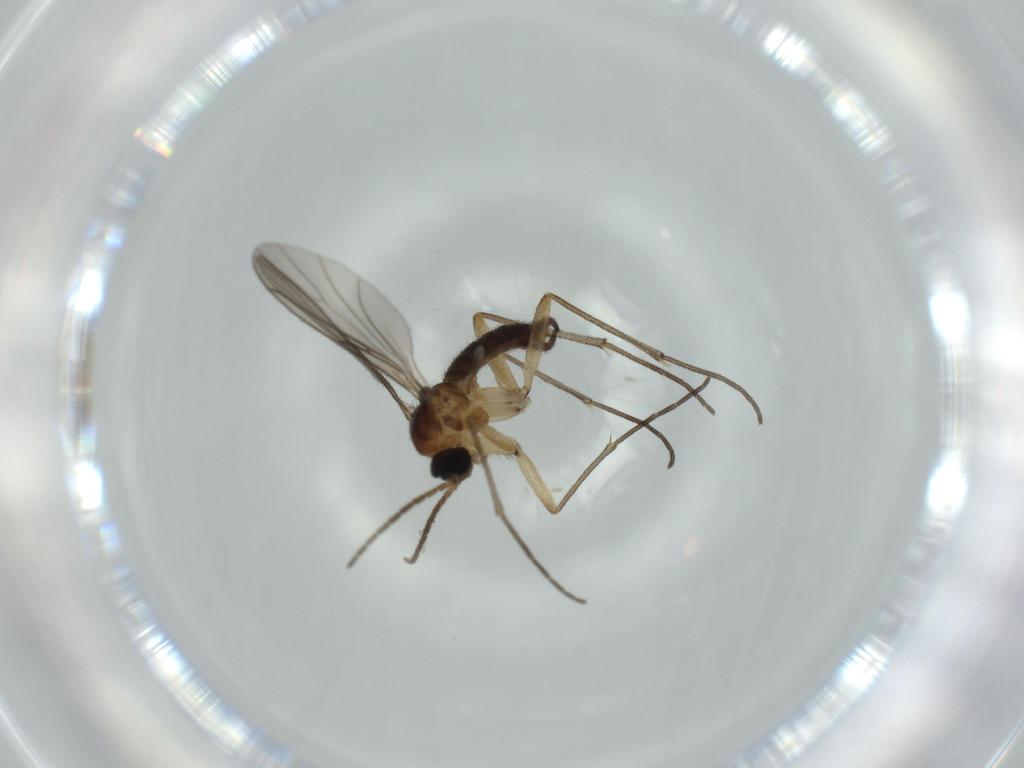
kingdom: Animalia
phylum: Arthropoda
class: Insecta
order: Diptera
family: Sciaridae
